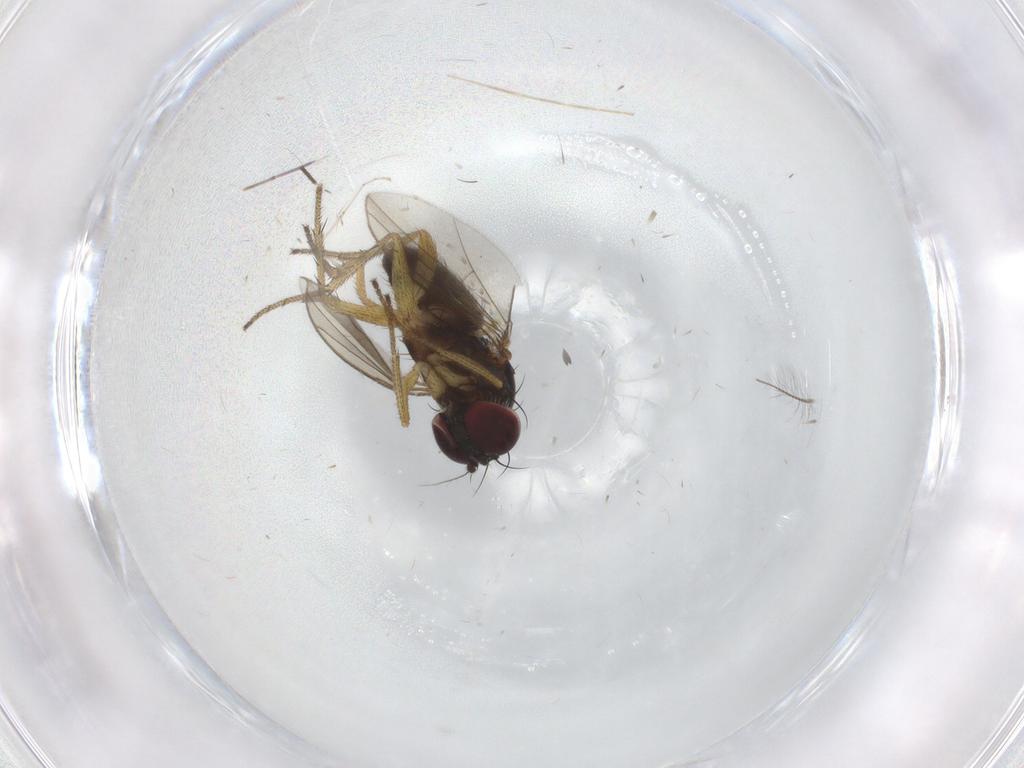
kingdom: Animalia
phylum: Arthropoda
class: Insecta
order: Diptera
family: Chironomidae
